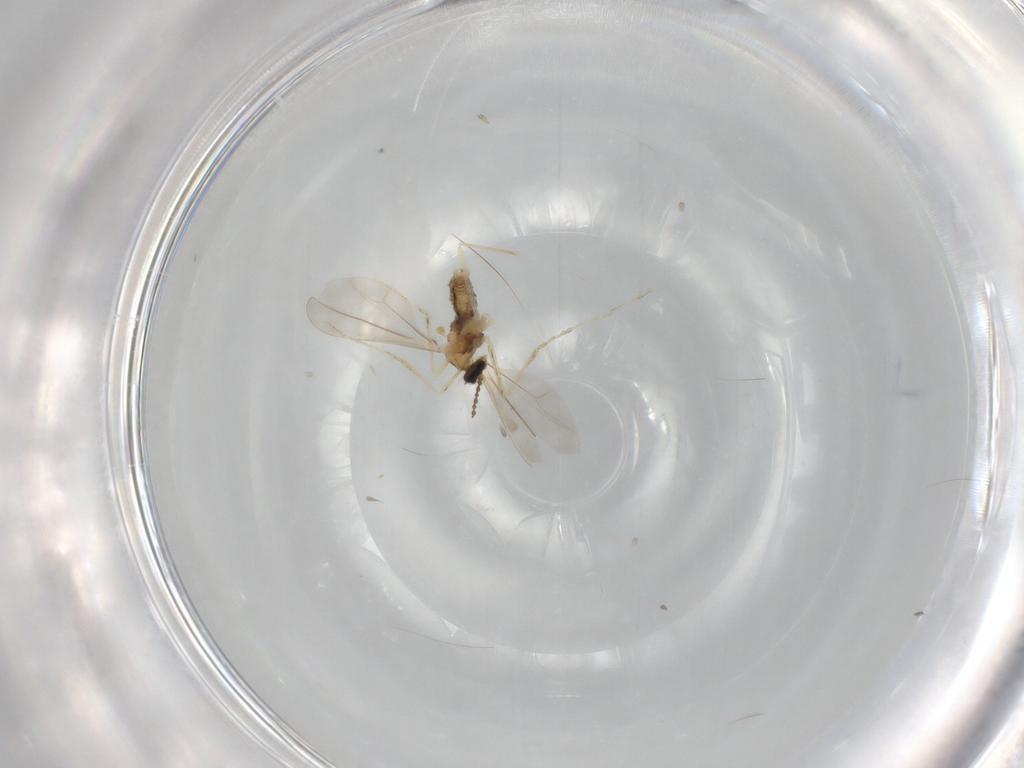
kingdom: Animalia
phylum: Arthropoda
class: Insecta
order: Diptera
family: Cecidomyiidae
